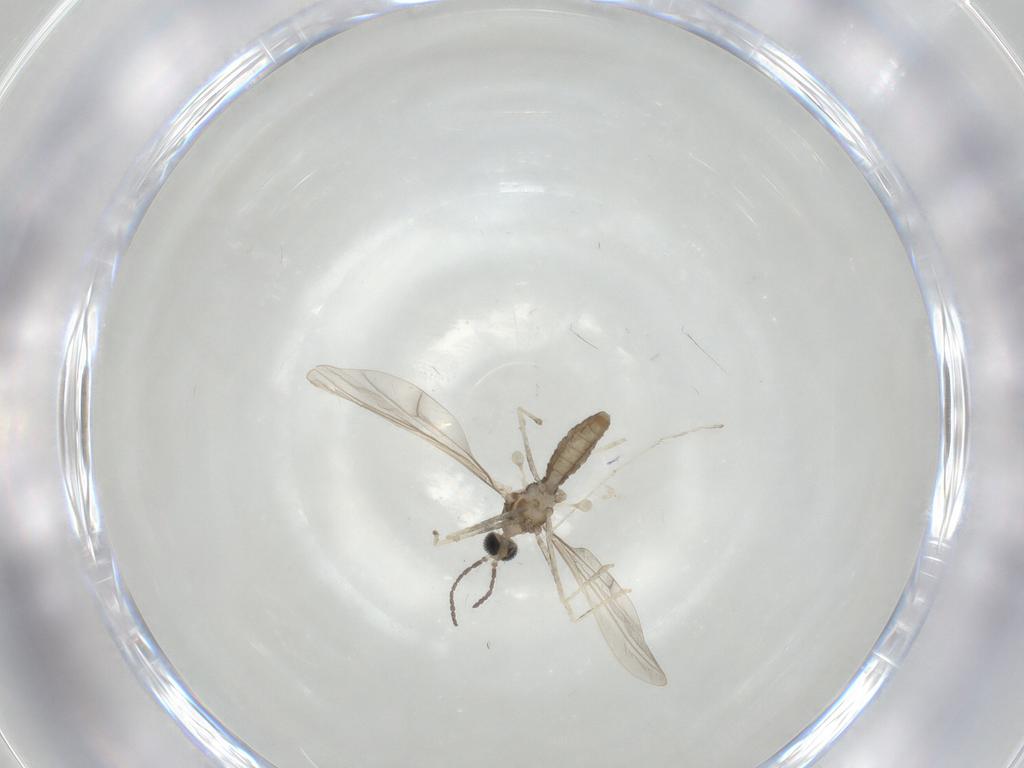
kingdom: Animalia
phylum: Arthropoda
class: Insecta
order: Diptera
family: Cecidomyiidae
